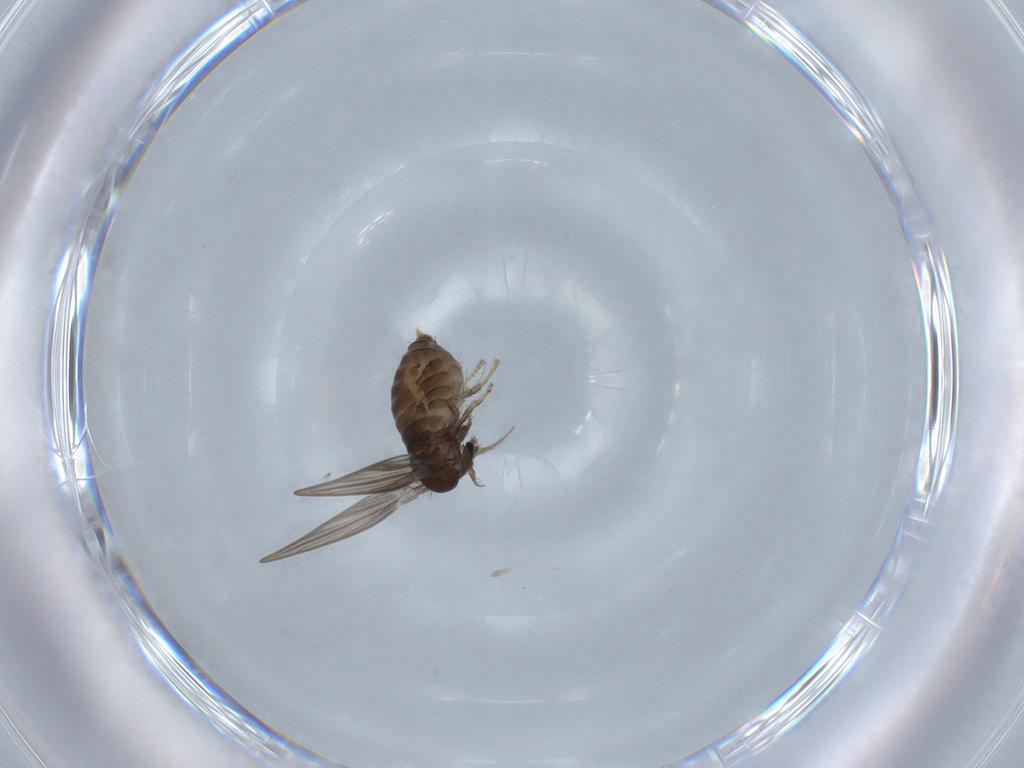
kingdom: Animalia
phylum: Arthropoda
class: Insecta
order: Diptera
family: Psychodidae
